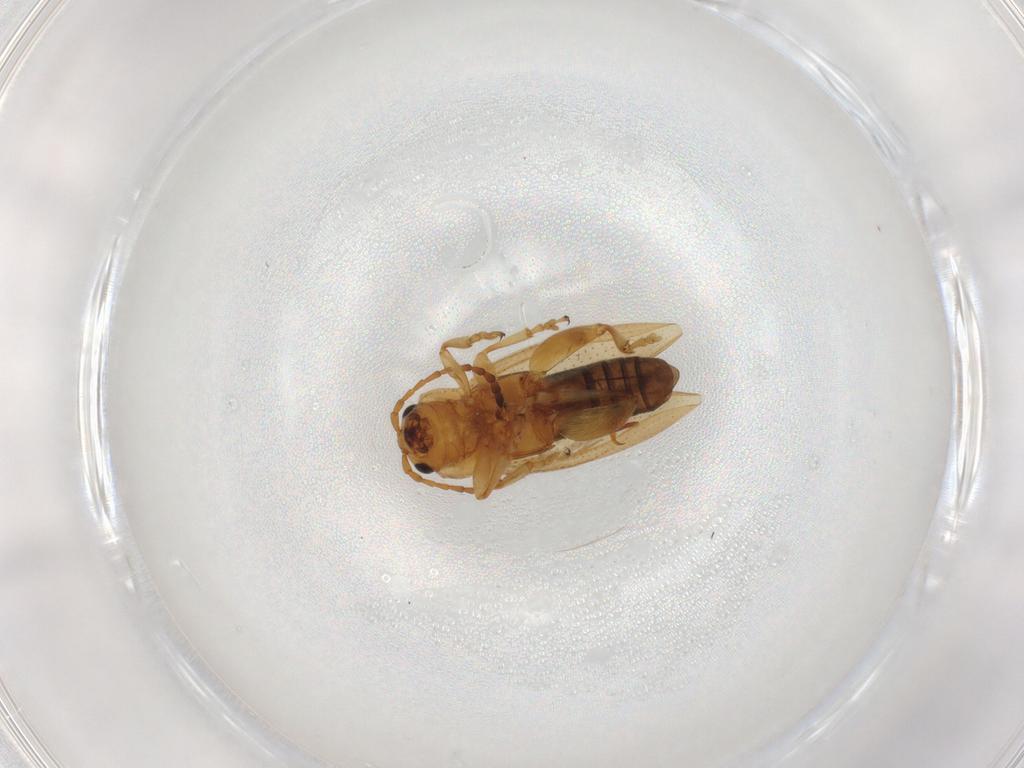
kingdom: Animalia
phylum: Arthropoda
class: Insecta
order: Coleoptera
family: Chrysomelidae
